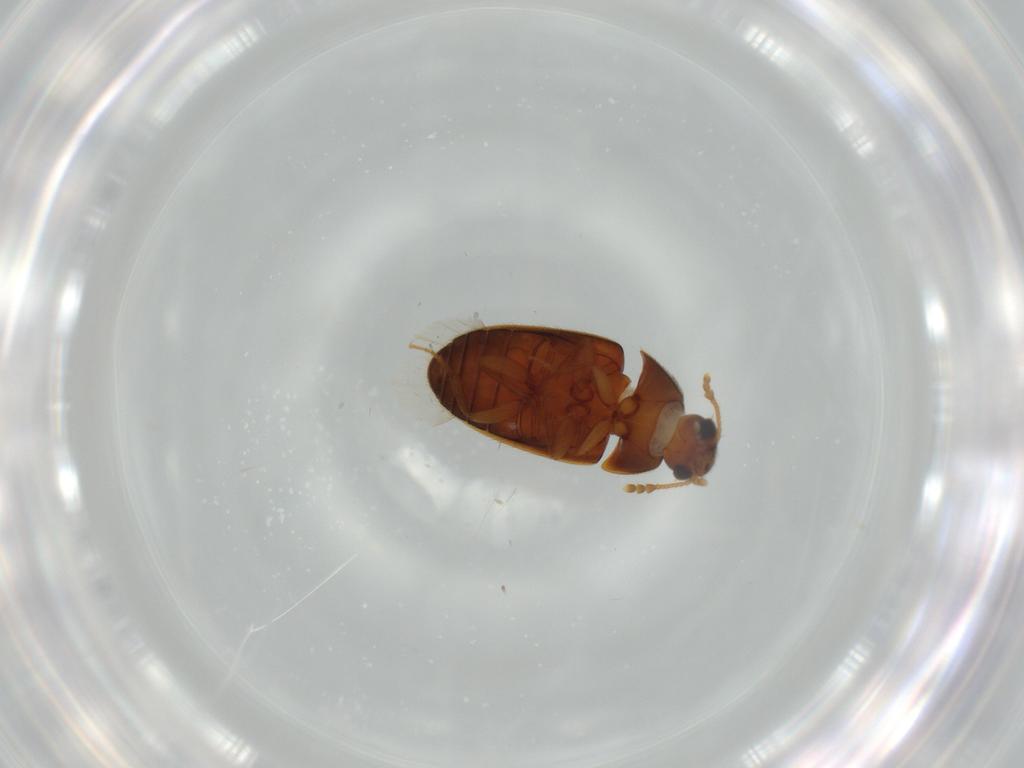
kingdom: Animalia
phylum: Arthropoda
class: Insecta
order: Coleoptera
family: Mycetophagidae
